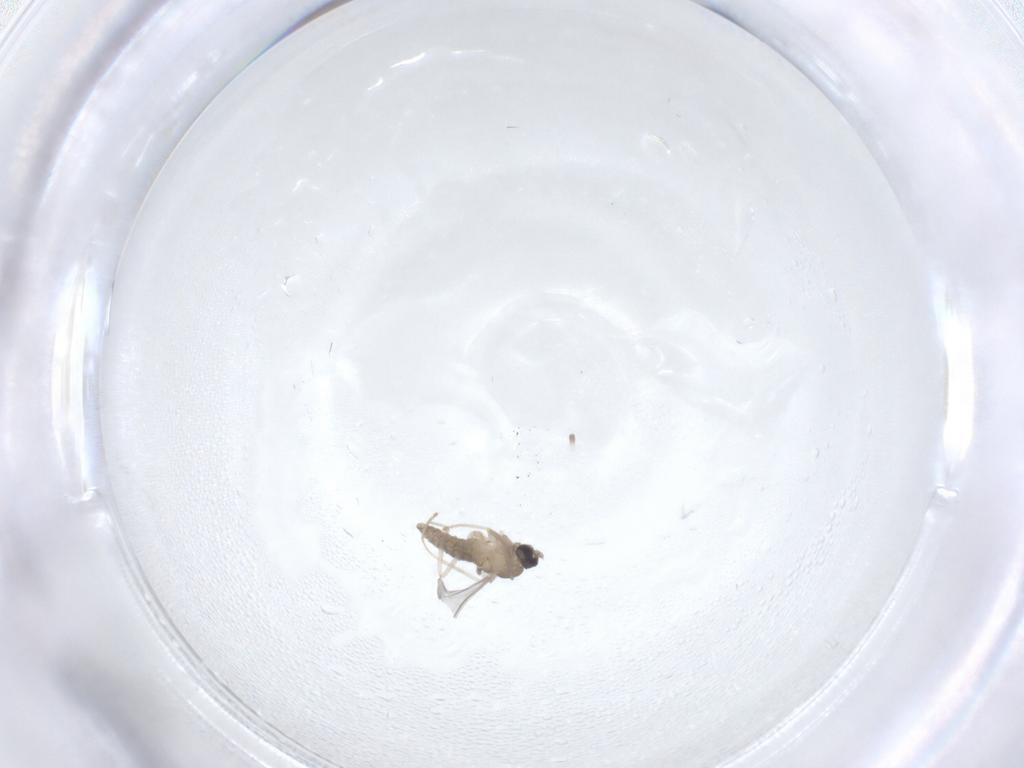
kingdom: Animalia
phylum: Arthropoda
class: Insecta
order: Diptera
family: Cecidomyiidae
